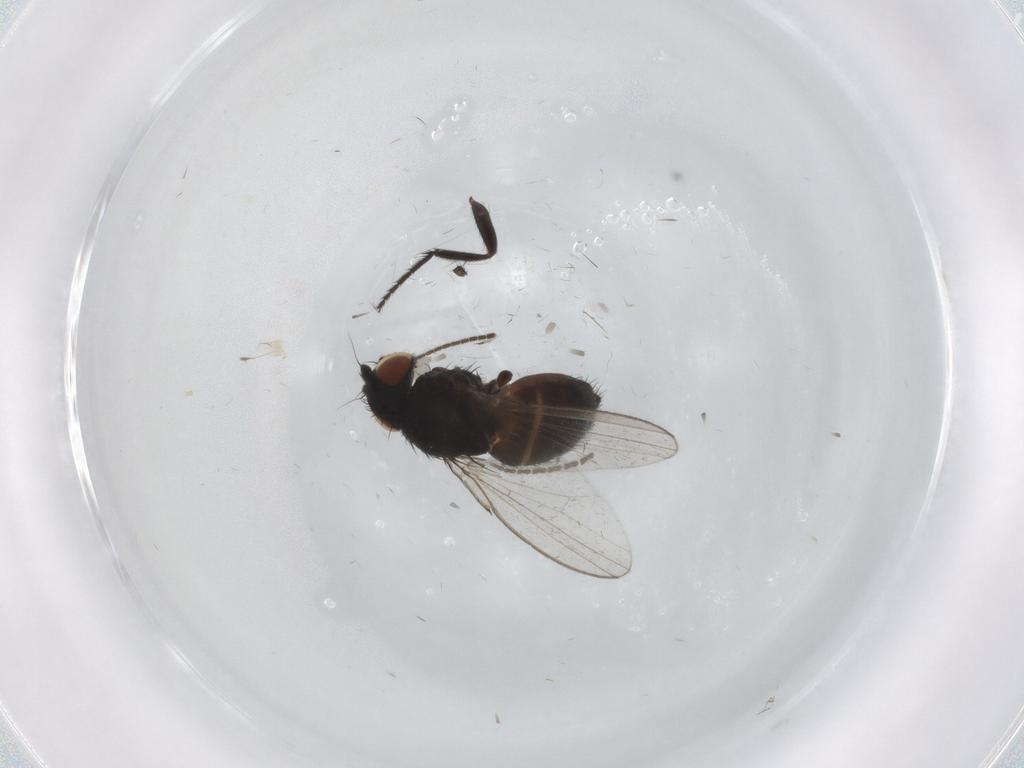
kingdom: Animalia
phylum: Arthropoda
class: Insecta
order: Diptera
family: Milichiidae
